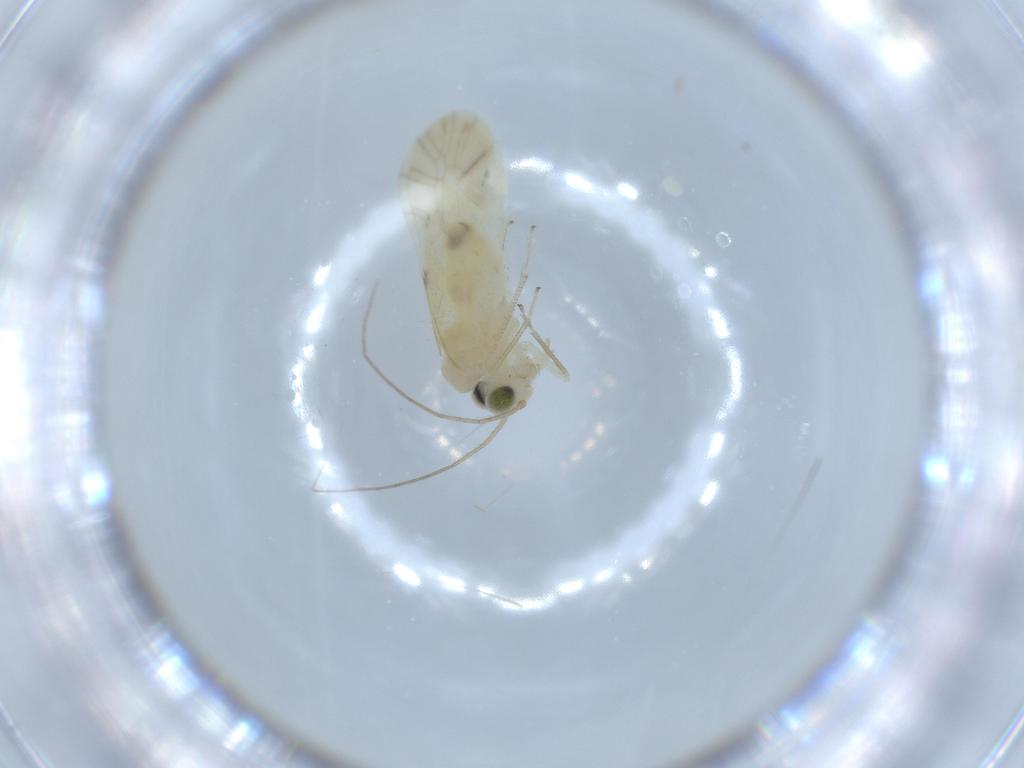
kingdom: Animalia
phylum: Arthropoda
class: Insecta
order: Psocodea
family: Caeciliusidae
